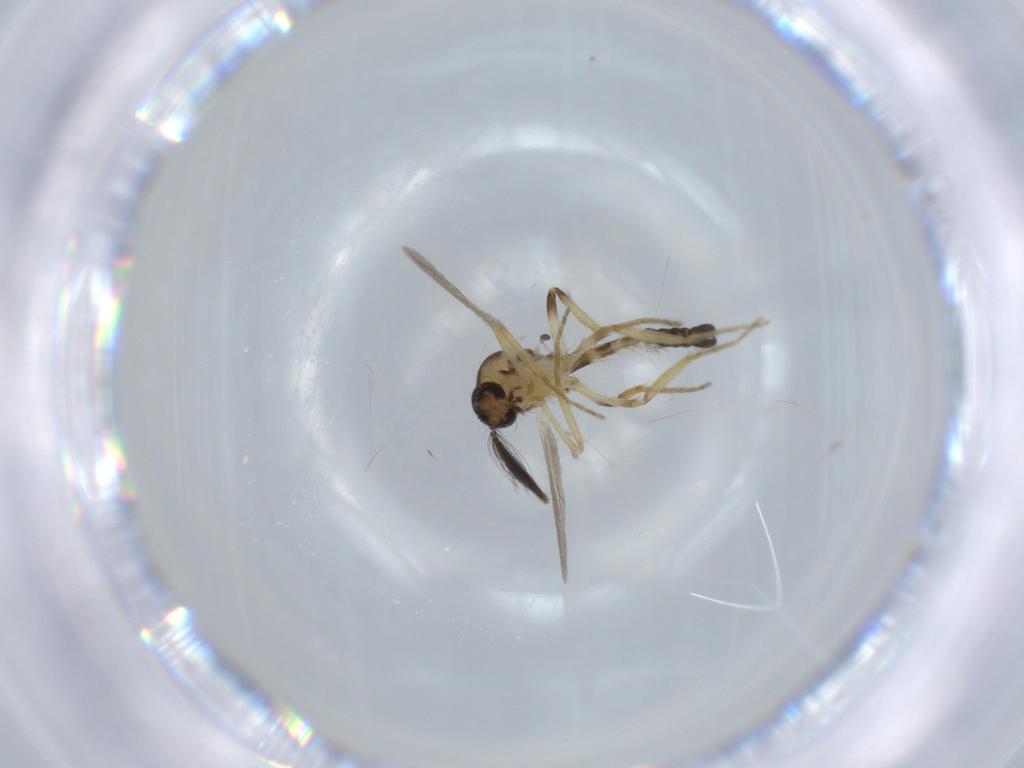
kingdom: Animalia
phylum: Arthropoda
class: Insecta
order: Diptera
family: Ceratopogonidae
